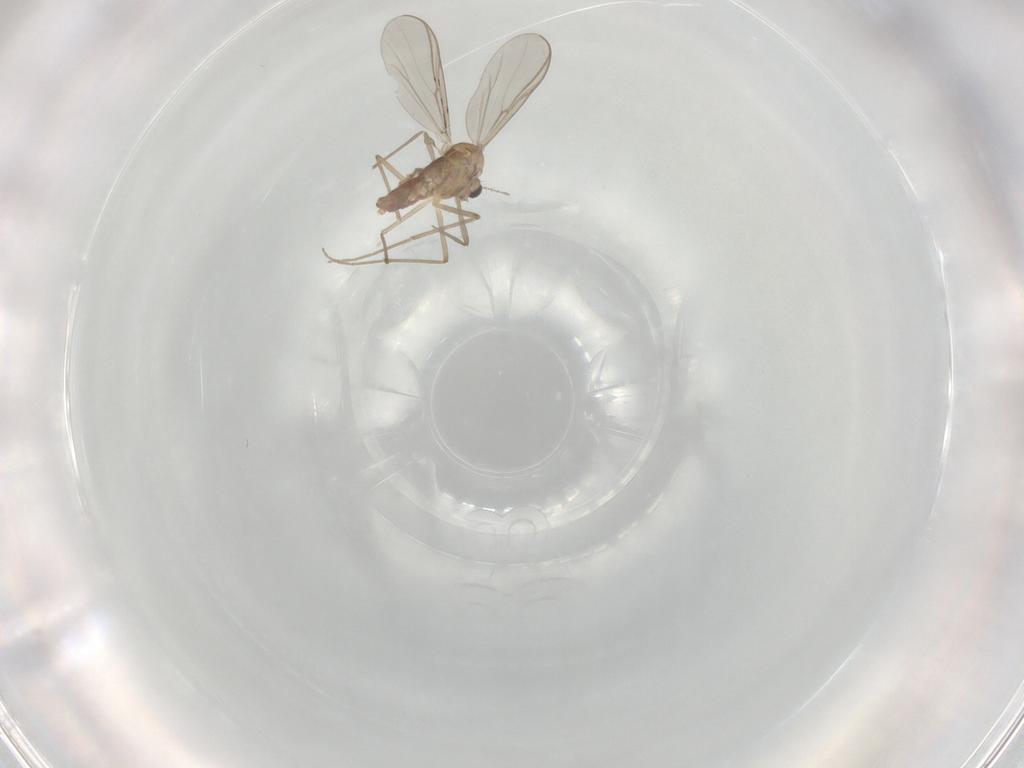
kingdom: Animalia
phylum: Arthropoda
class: Insecta
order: Diptera
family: Chironomidae
